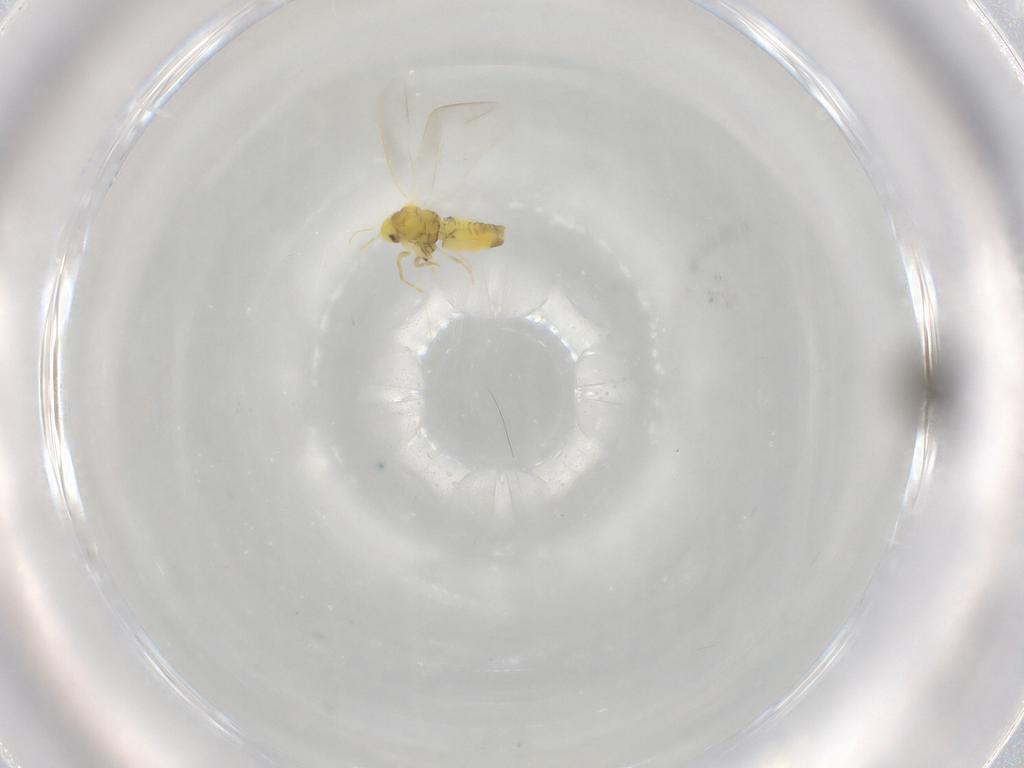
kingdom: Animalia
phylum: Arthropoda
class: Insecta
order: Hemiptera
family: Aleyrodidae
